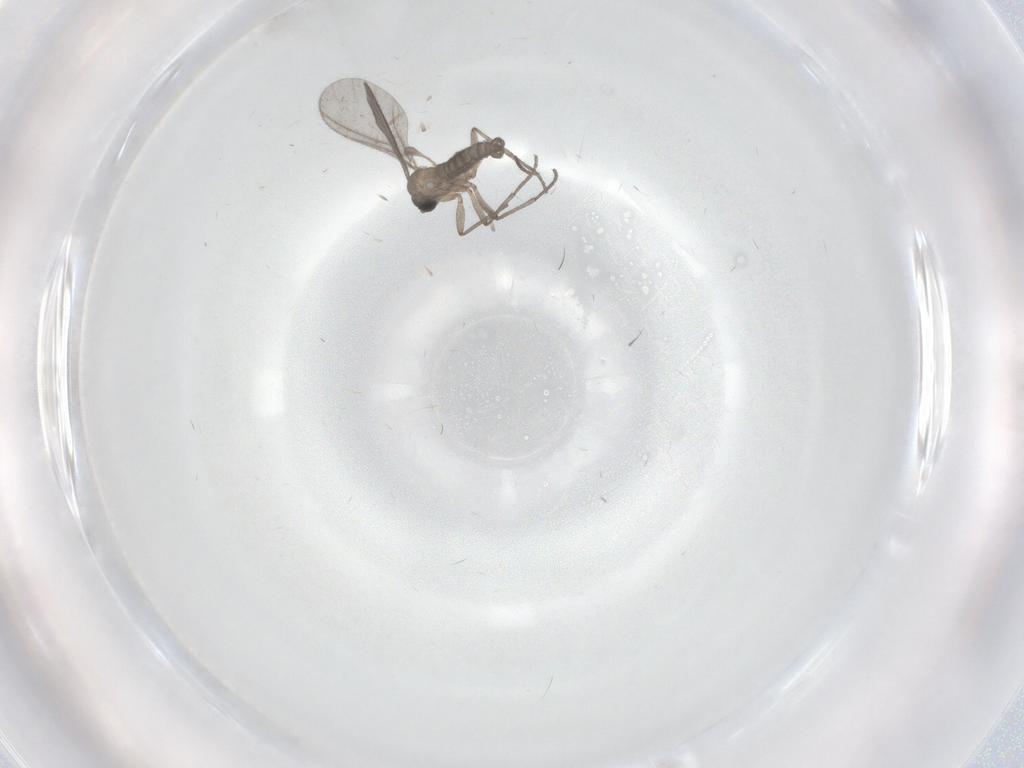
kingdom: Animalia
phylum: Arthropoda
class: Insecta
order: Diptera
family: Sciaridae
